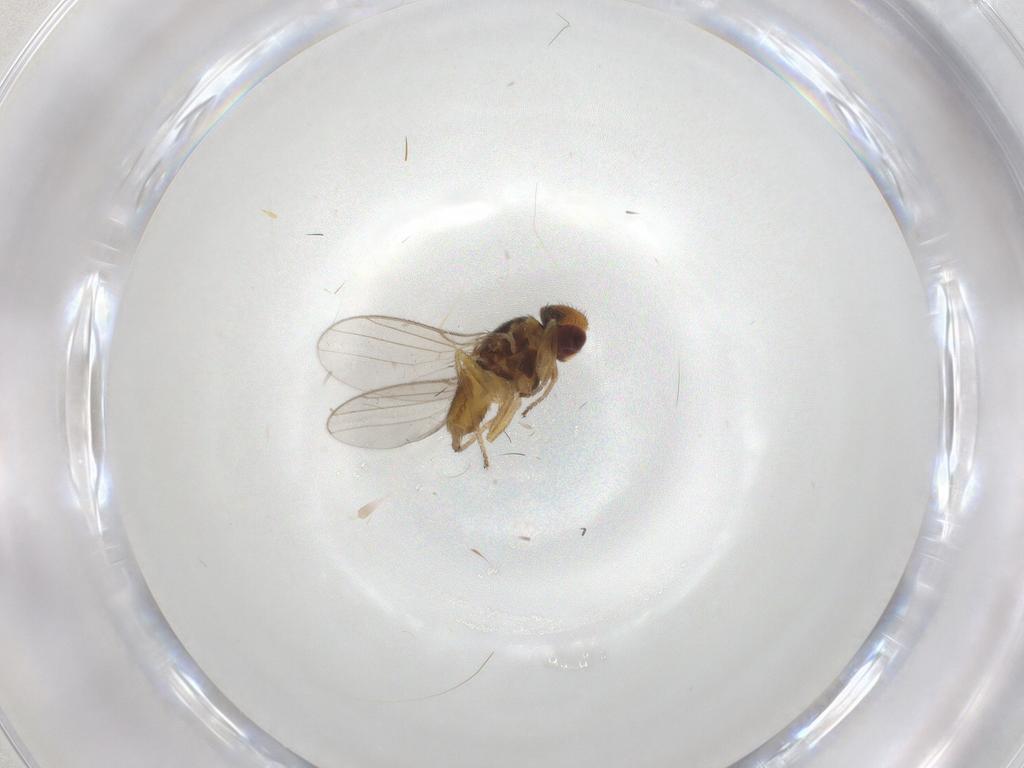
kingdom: Animalia
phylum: Arthropoda
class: Insecta
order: Diptera
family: Chloropidae
